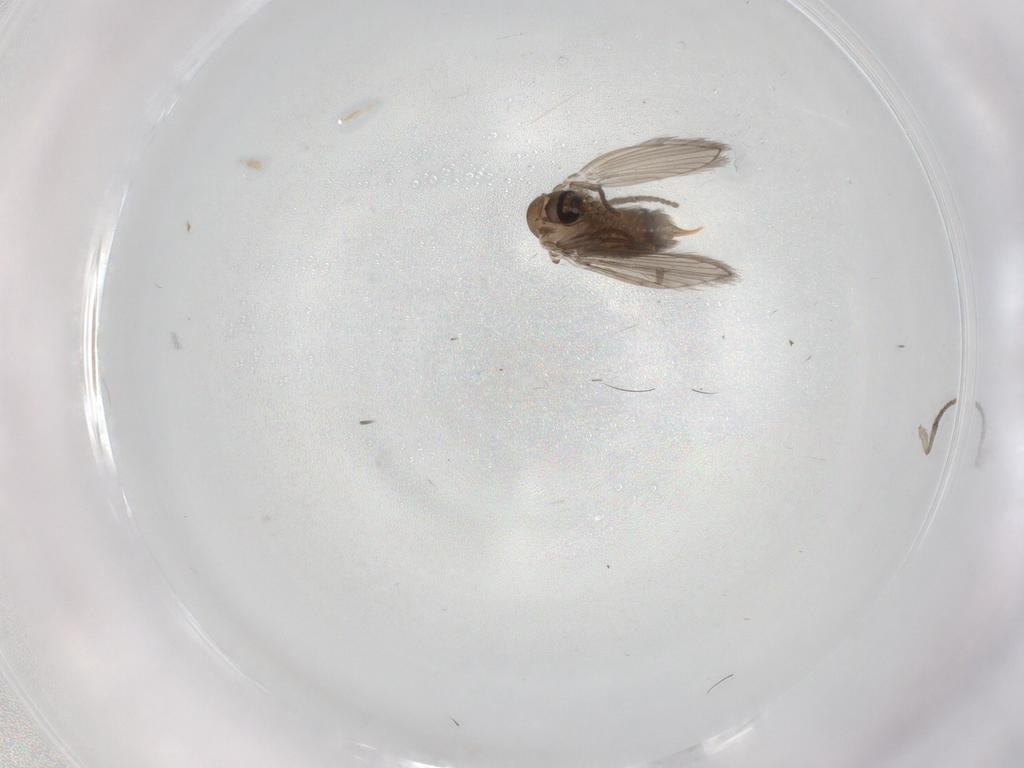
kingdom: Animalia
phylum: Arthropoda
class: Insecta
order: Diptera
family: Psychodidae
